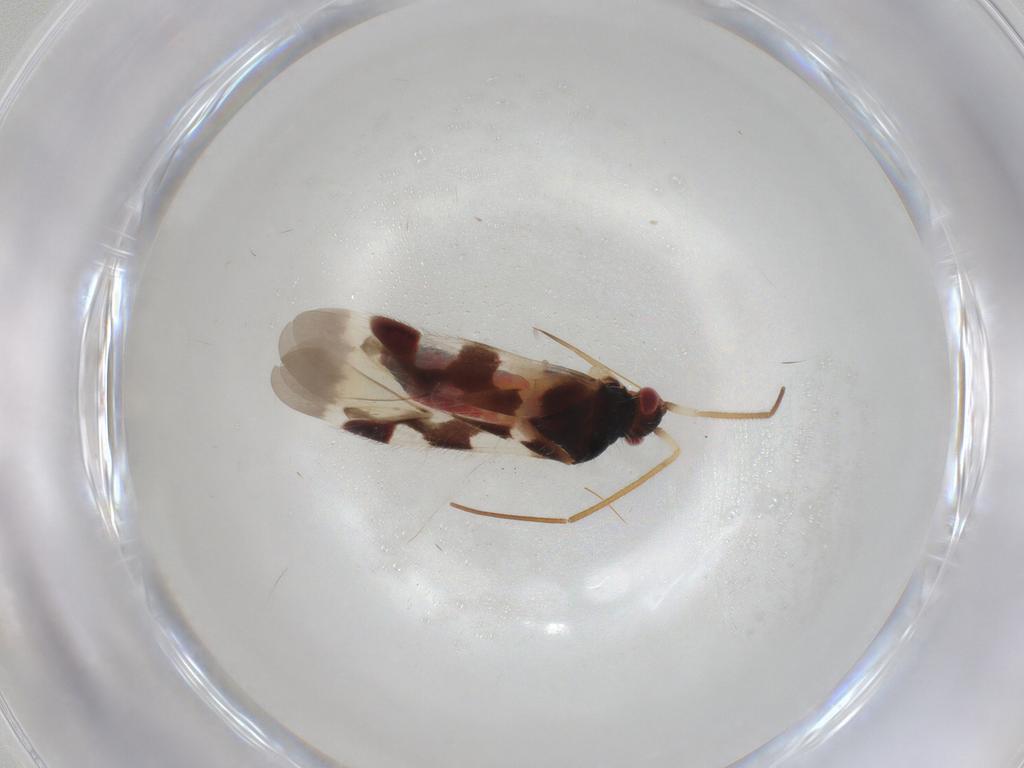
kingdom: Animalia
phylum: Arthropoda
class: Insecta
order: Hemiptera
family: Miridae
